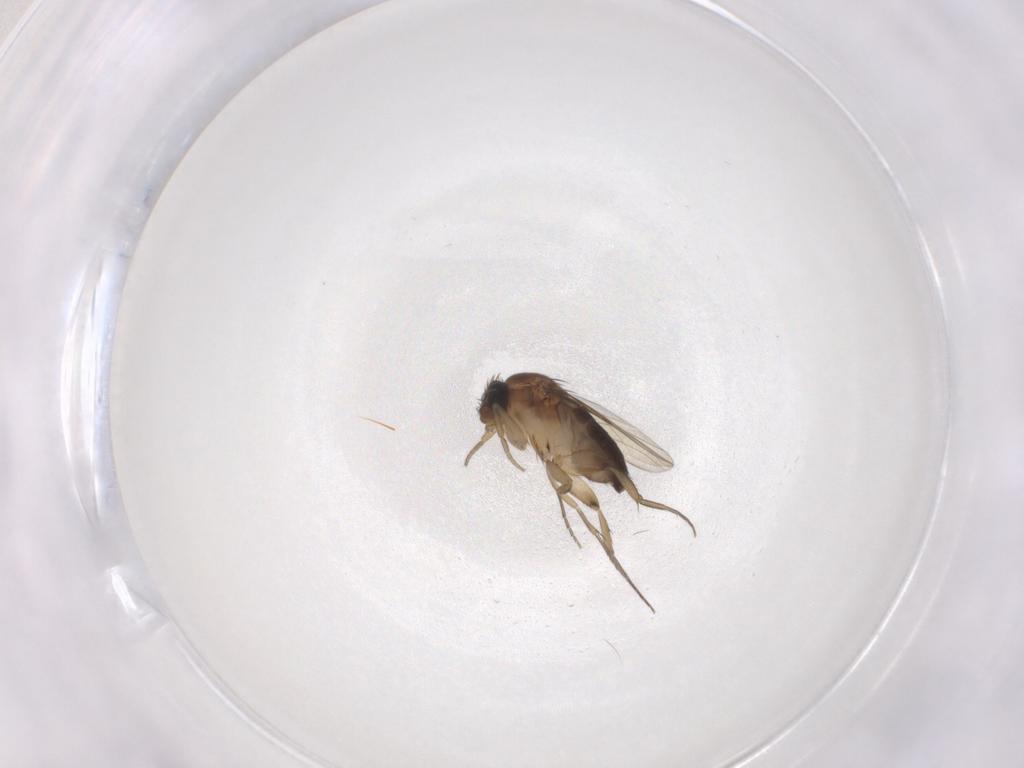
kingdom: Animalia
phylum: Arthropoda
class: Insecta
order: Diptera
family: Phoridae
